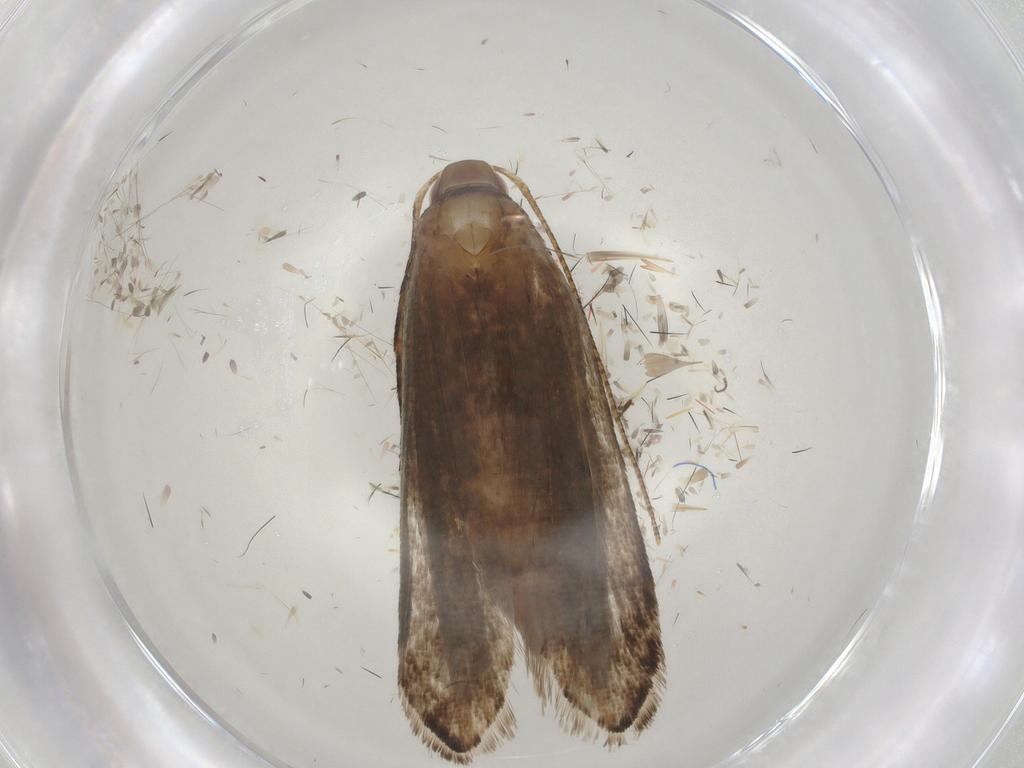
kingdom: Animalia
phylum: Arthropoda
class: Insecta
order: Lepidoptera
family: Gelechiidae
